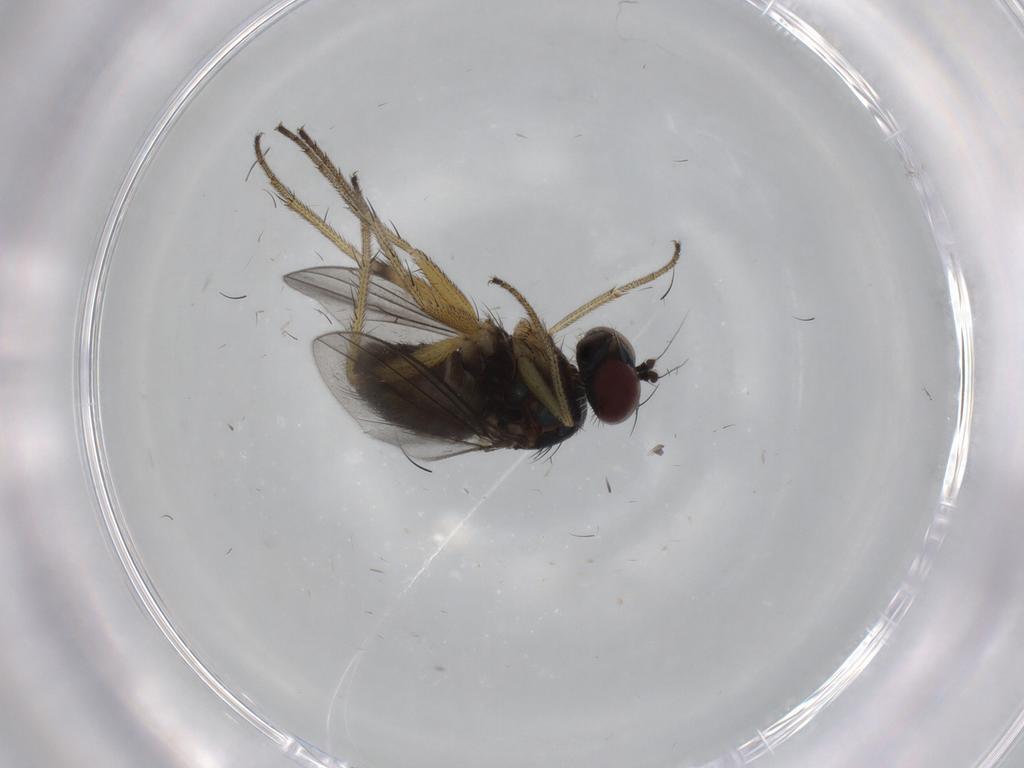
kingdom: Animalia
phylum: Arthropoda
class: Insecta
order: Diptera
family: Dolichopodidae
